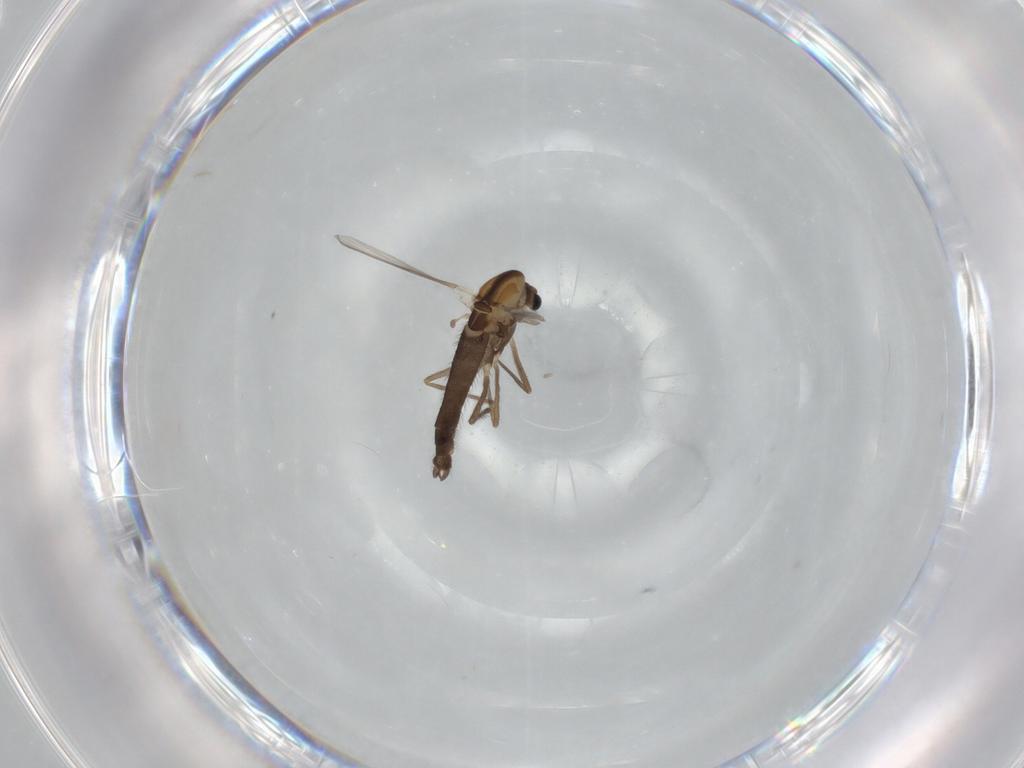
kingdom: Animalia
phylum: Arthropoda
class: Insecta
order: Diptera
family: Chironomidae
